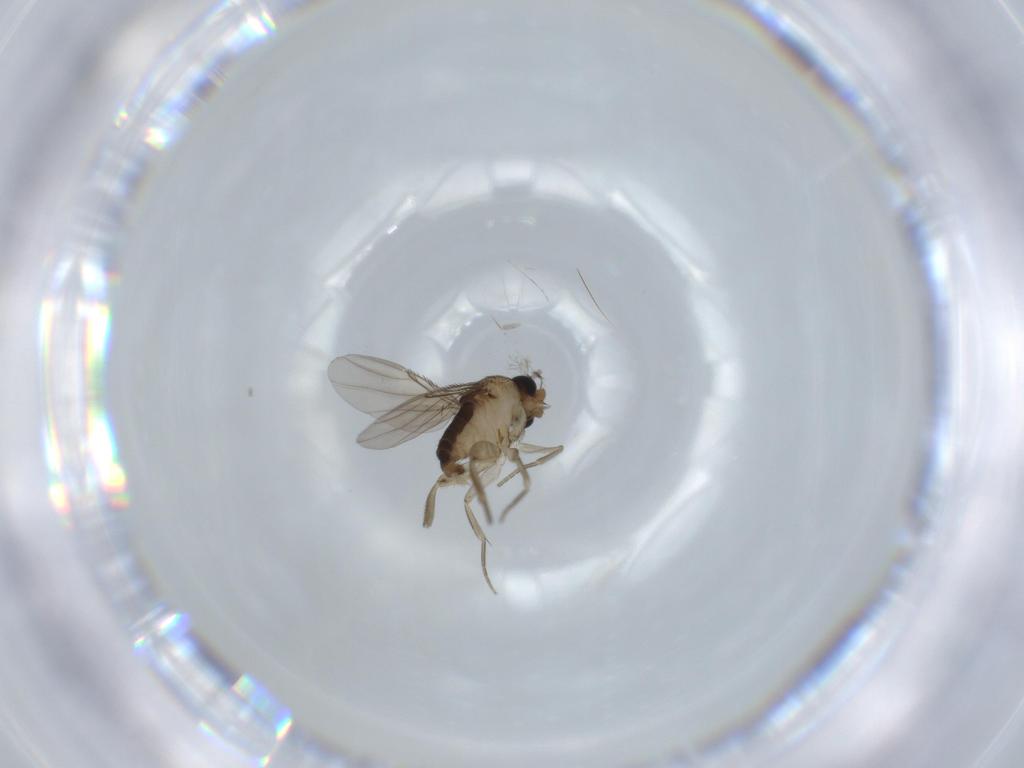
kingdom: Animalia
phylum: Arthropoda
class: Insecta
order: Diptera
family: Phoridae
